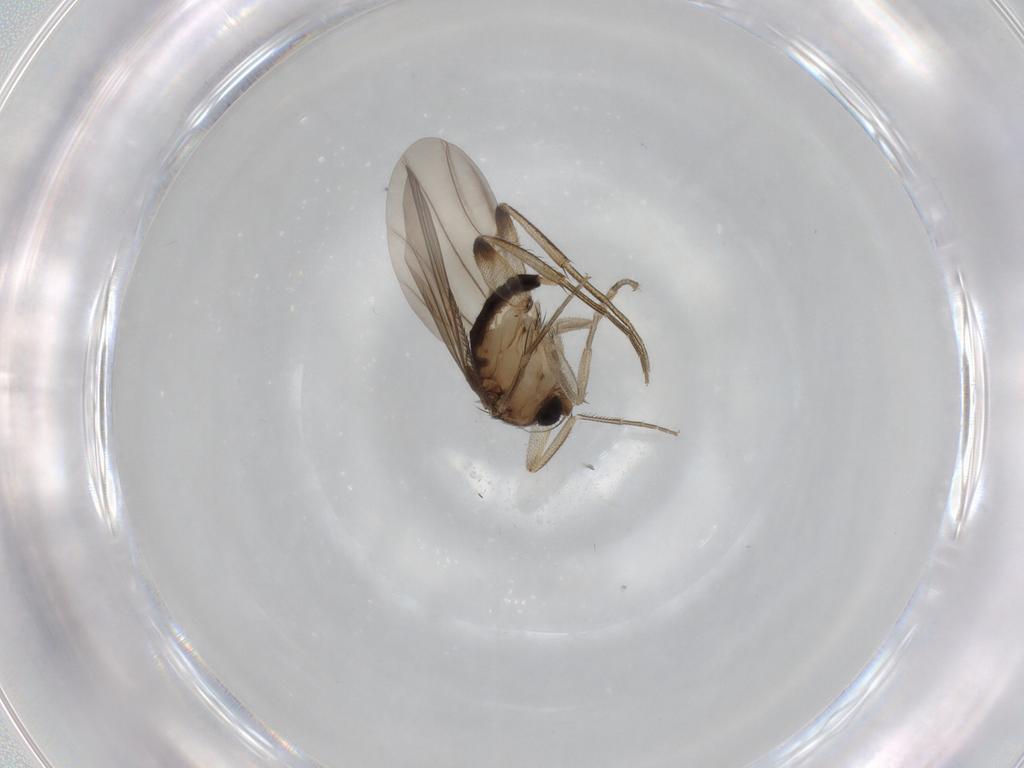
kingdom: Animalia
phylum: Arthropoda
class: Insecta
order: Diptera
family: Phoridae
